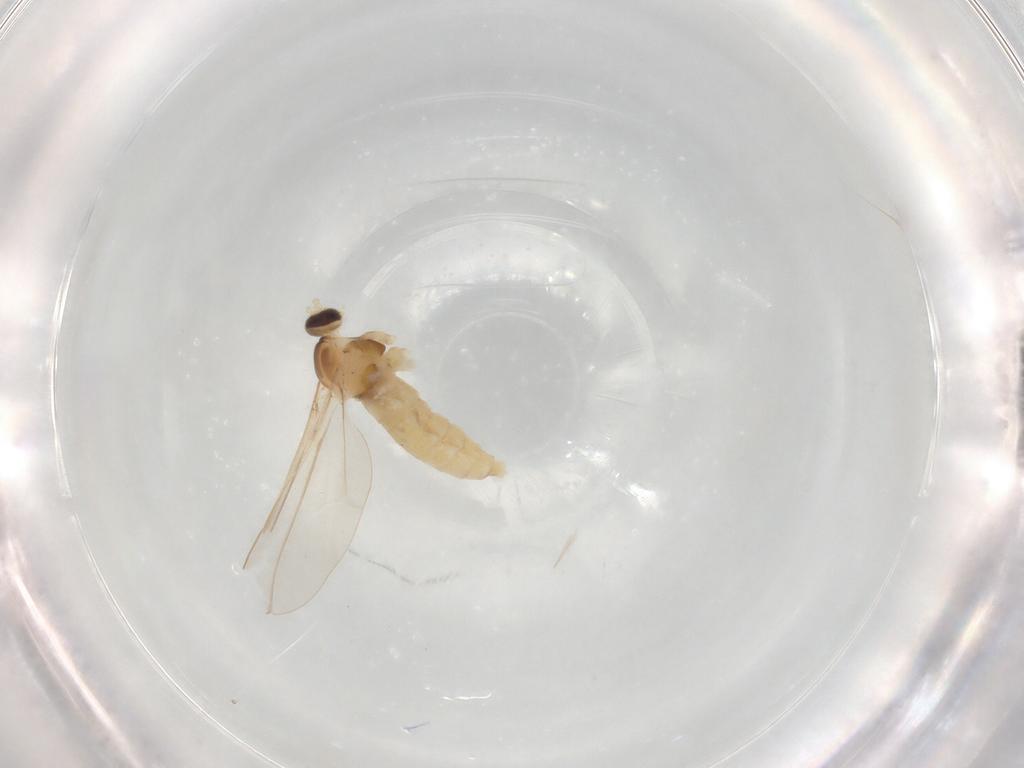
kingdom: Animalia
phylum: Arthropoda
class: Insecta
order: Diptera
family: Cecidomyiidae
